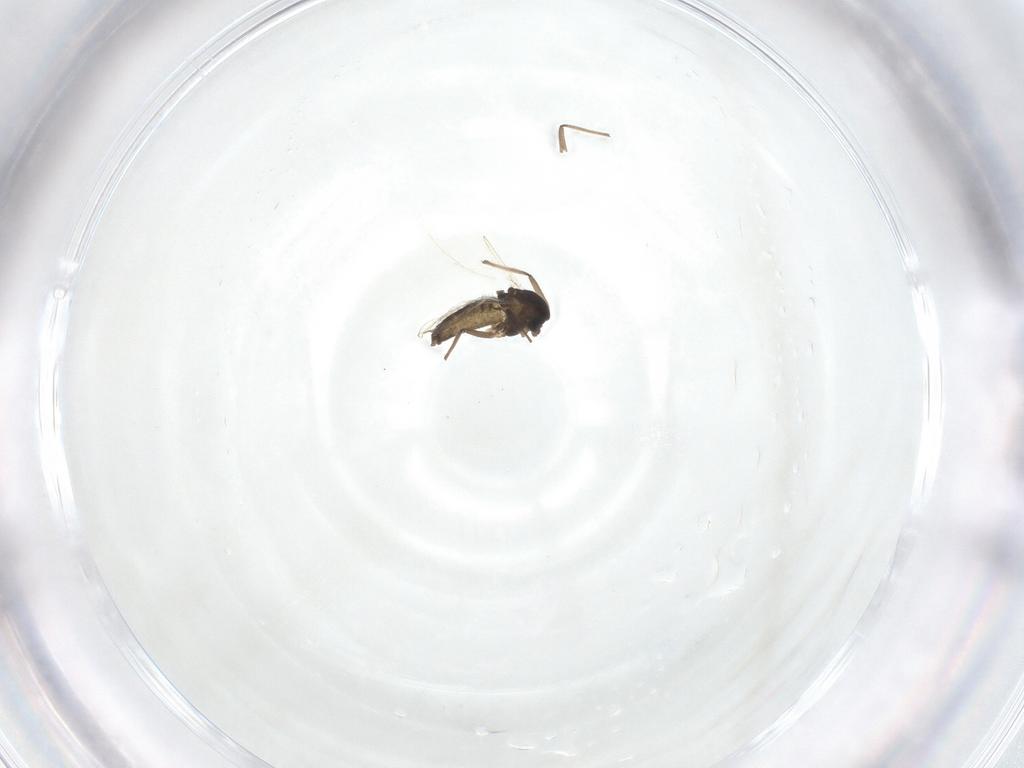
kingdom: Animalia
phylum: Arthropoda
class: Insecta
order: Diptera
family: Chironomidae
